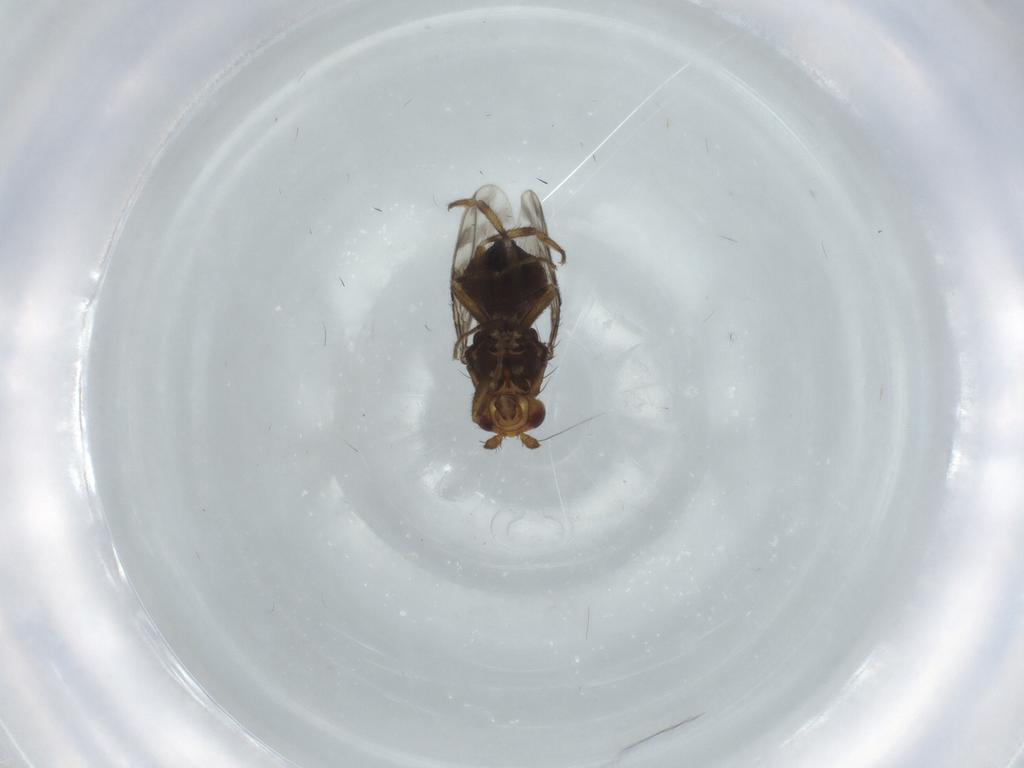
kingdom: Animalia
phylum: Arthropoda
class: Insecta
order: Diptera
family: Sphaeroceridae
